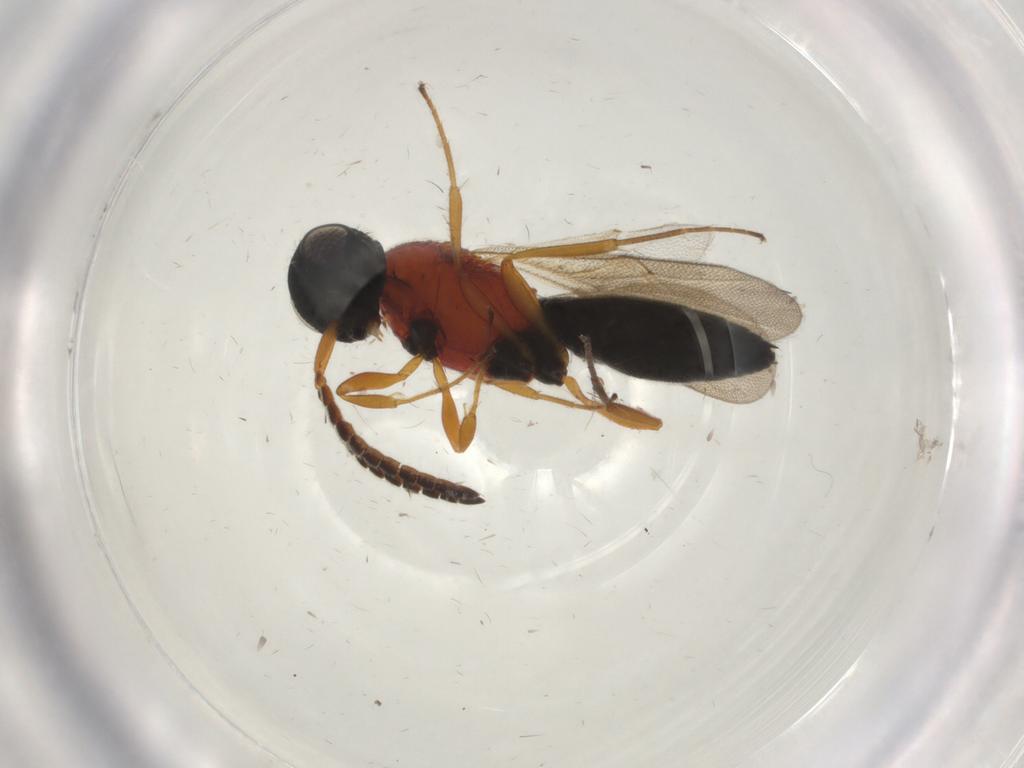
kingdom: Animalia
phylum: Arthropoda
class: Insecta
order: Hymenoptera
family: Scelionidae
